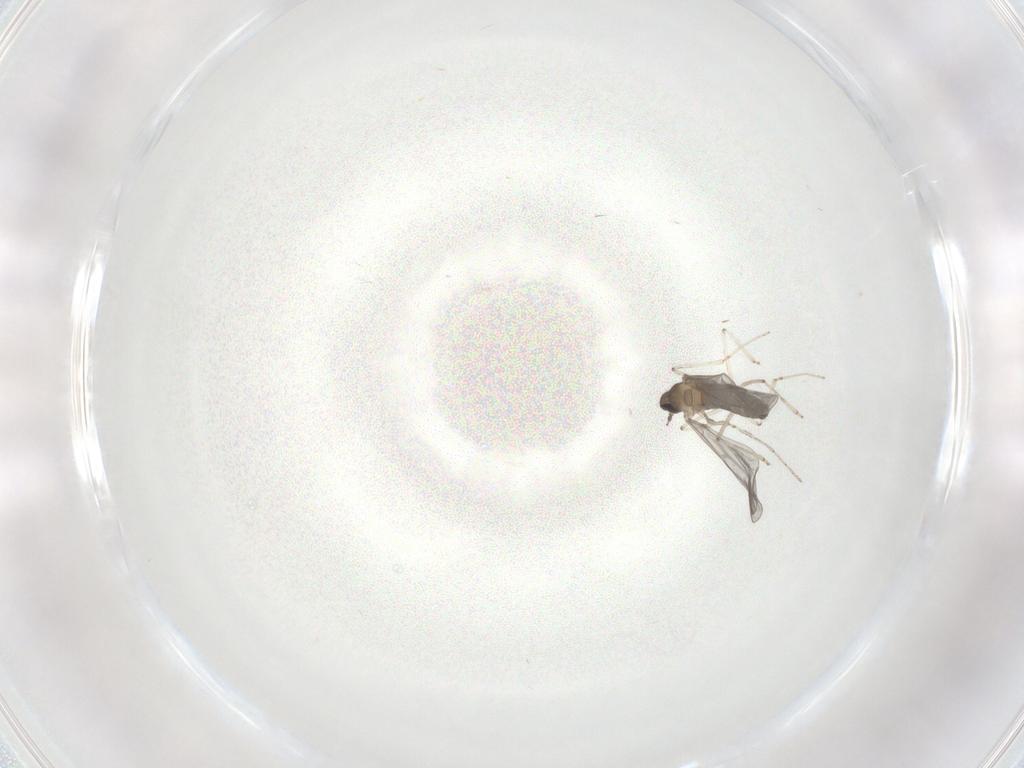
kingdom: Animalia
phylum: Arthropoda
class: Insecta
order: Diptera
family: Cecidomyiidae
